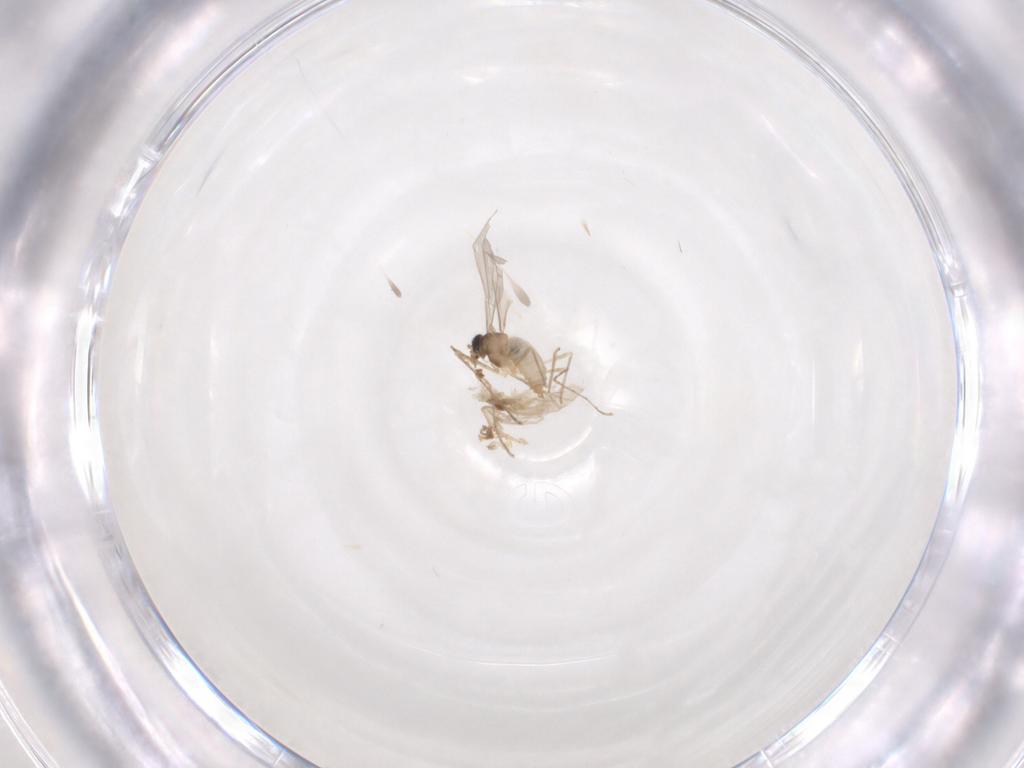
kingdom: Animalia
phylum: Arthropoda
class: Insecta
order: Diptera
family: Cecidomyiidae
